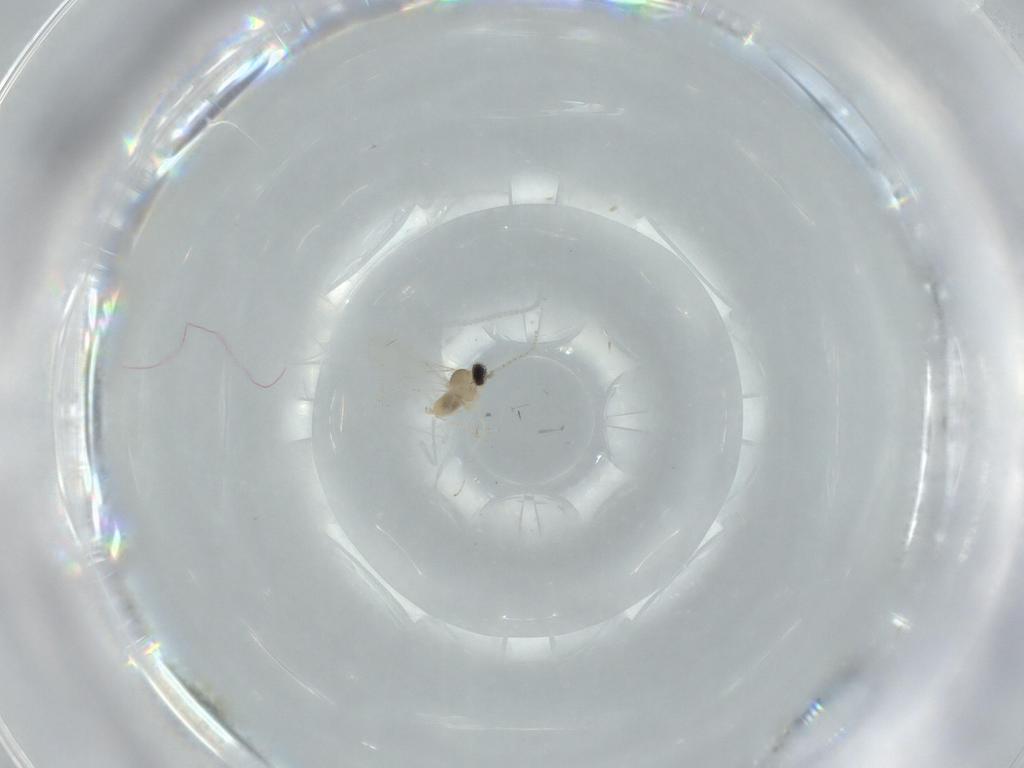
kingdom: Animalia
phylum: Arthropoda
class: Insecta
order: Diptera
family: Cecidomyiidae
